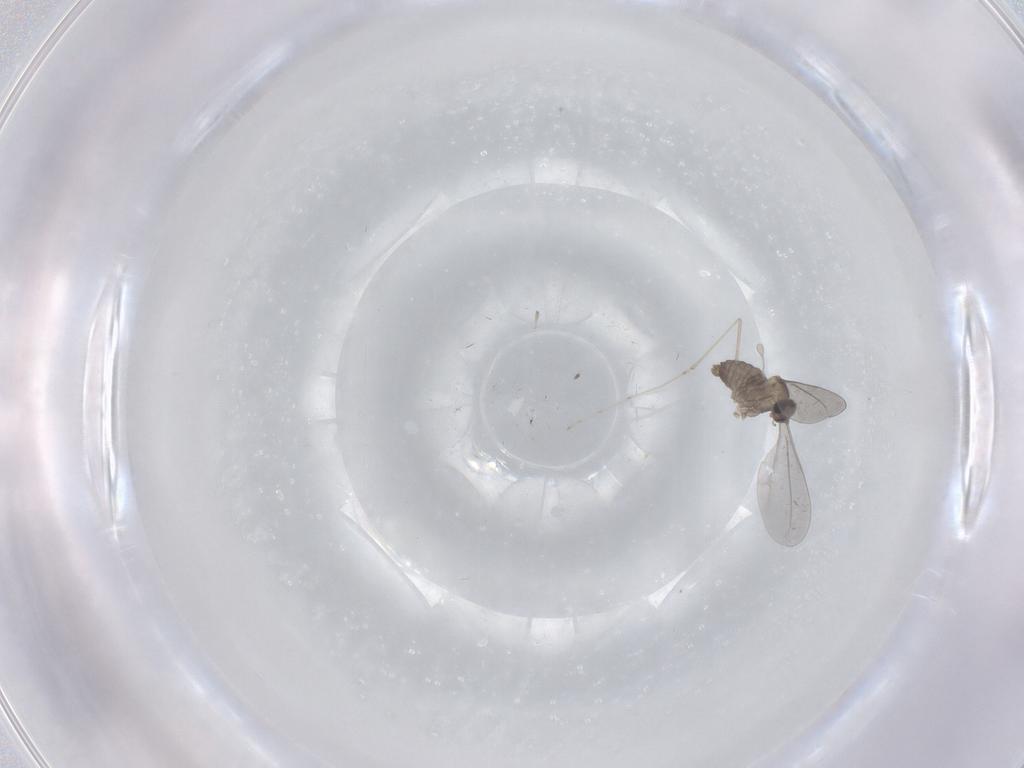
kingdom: Animalia
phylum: Arthropoda
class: Insecta
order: Diptera
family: Cecidomyiidae
